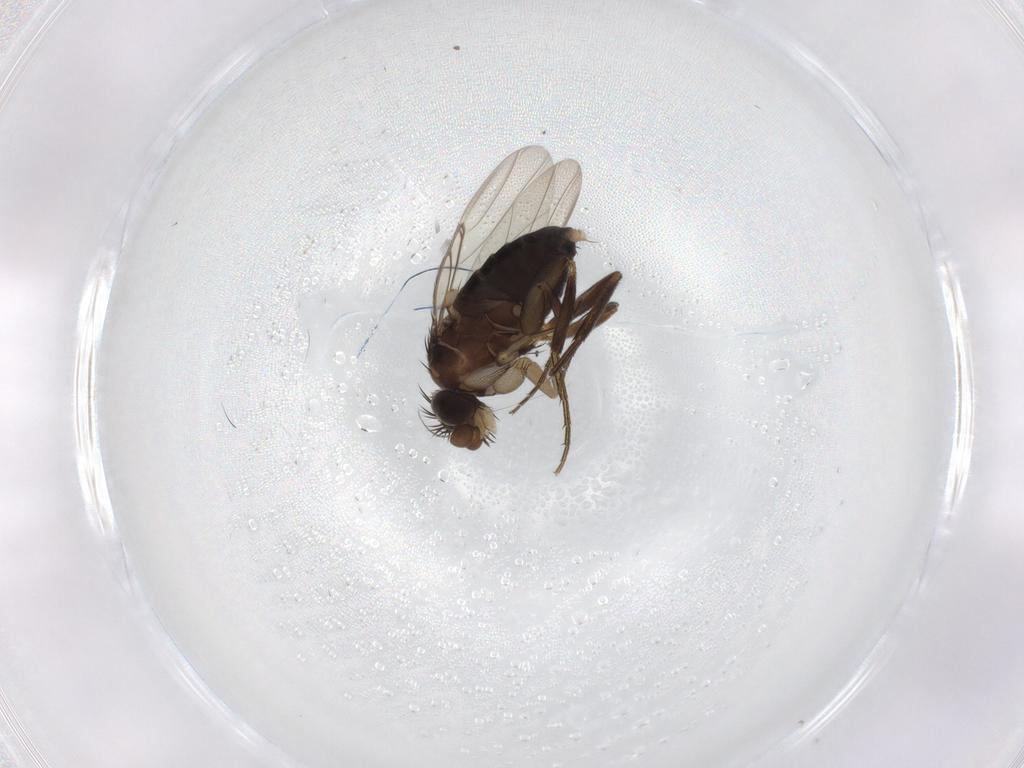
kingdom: Animalia
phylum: Arthropoda
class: Insecta
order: Diptera
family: Phoridae
